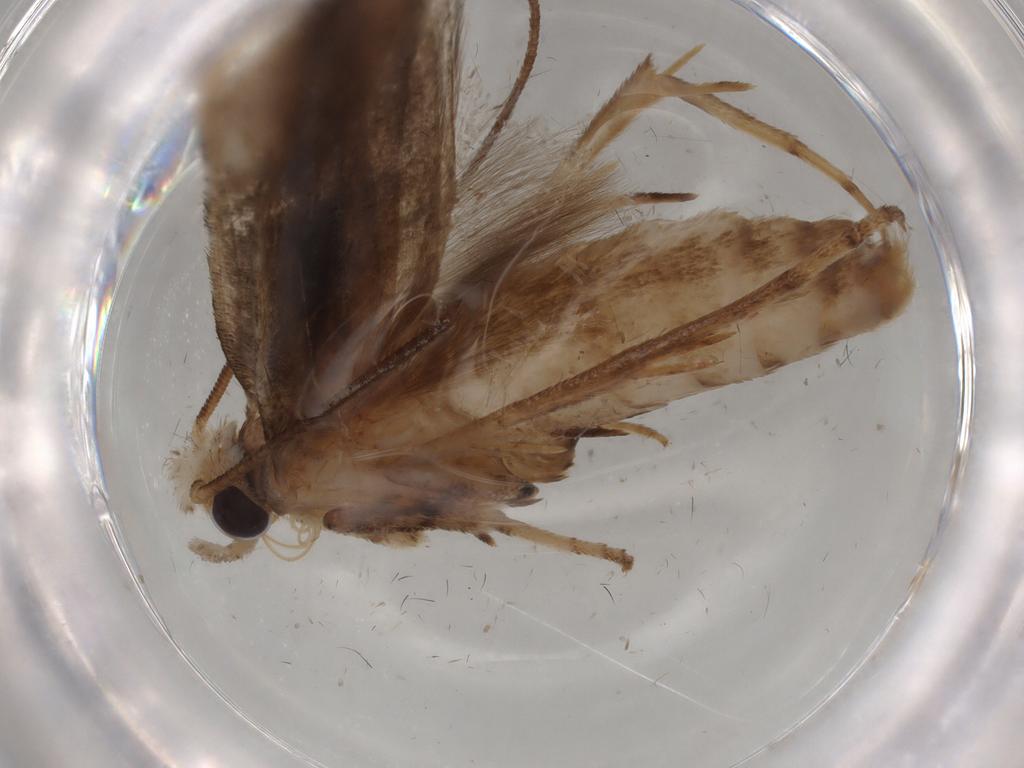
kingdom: Animalia
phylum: Arthropoda
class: Insecta
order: Lepidoptera
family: Yponomeutidae
